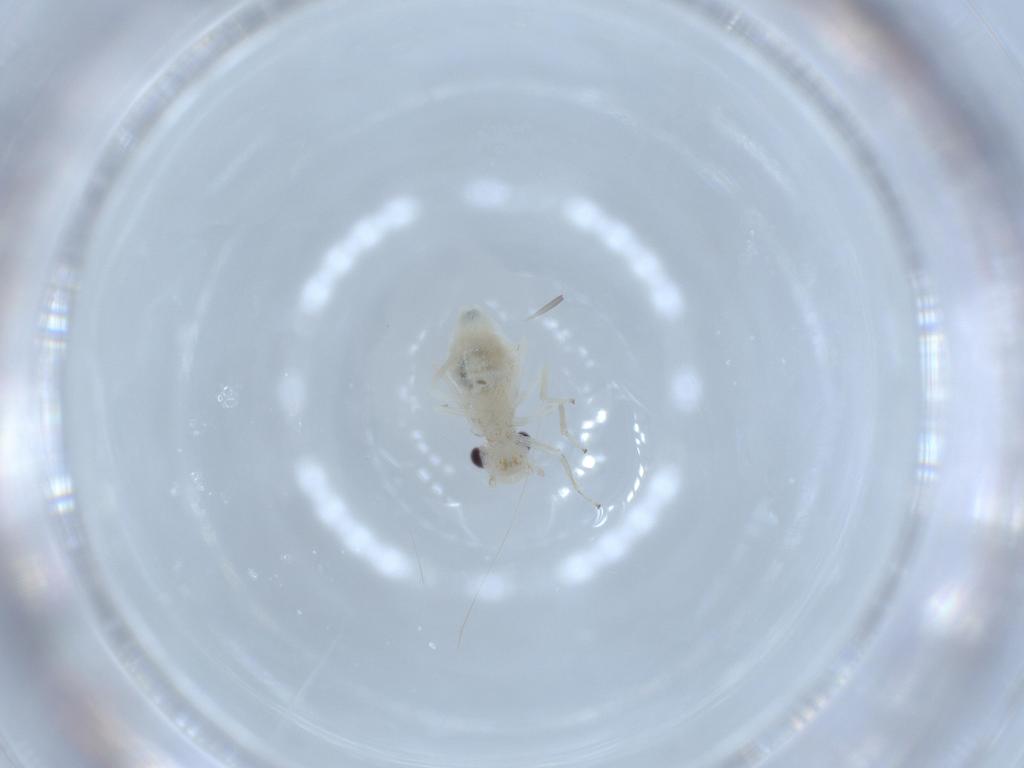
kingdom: Animalia
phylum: Arthropoda
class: Insecta
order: Psocodea
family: Caeciliusidae
